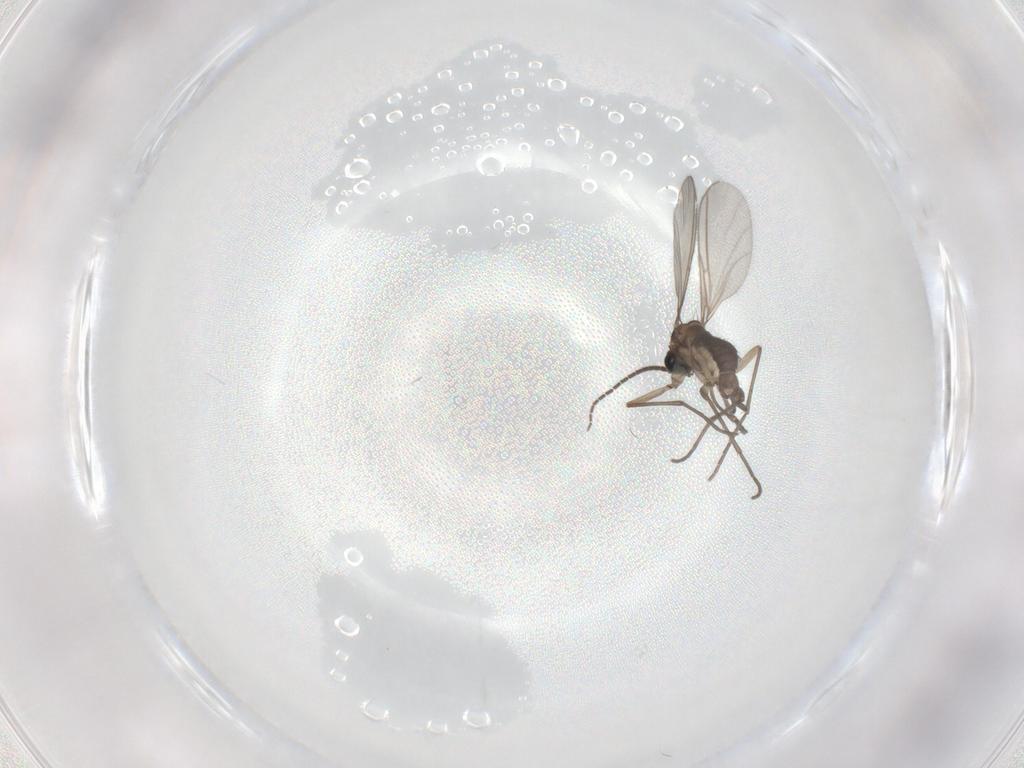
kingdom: Animalia
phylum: Arthropoda
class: Insecta
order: Diptera
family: Sciaridae
